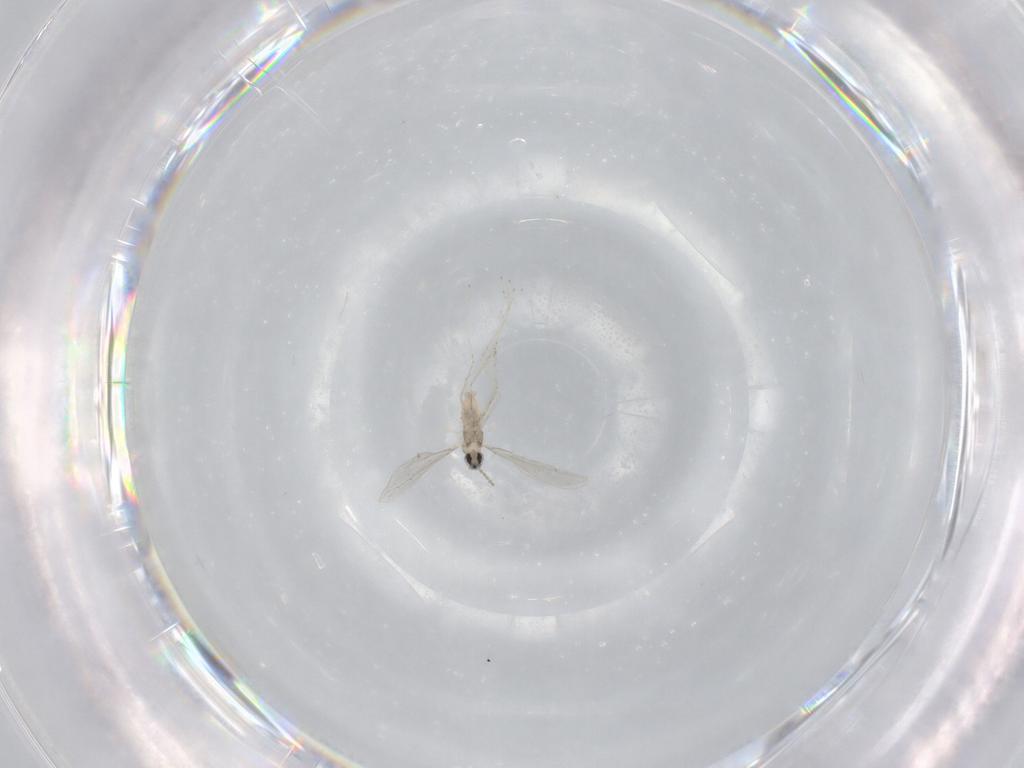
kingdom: Animalia
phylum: Arthropoda
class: Insecta
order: Diptera
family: Cecidomyiidae
